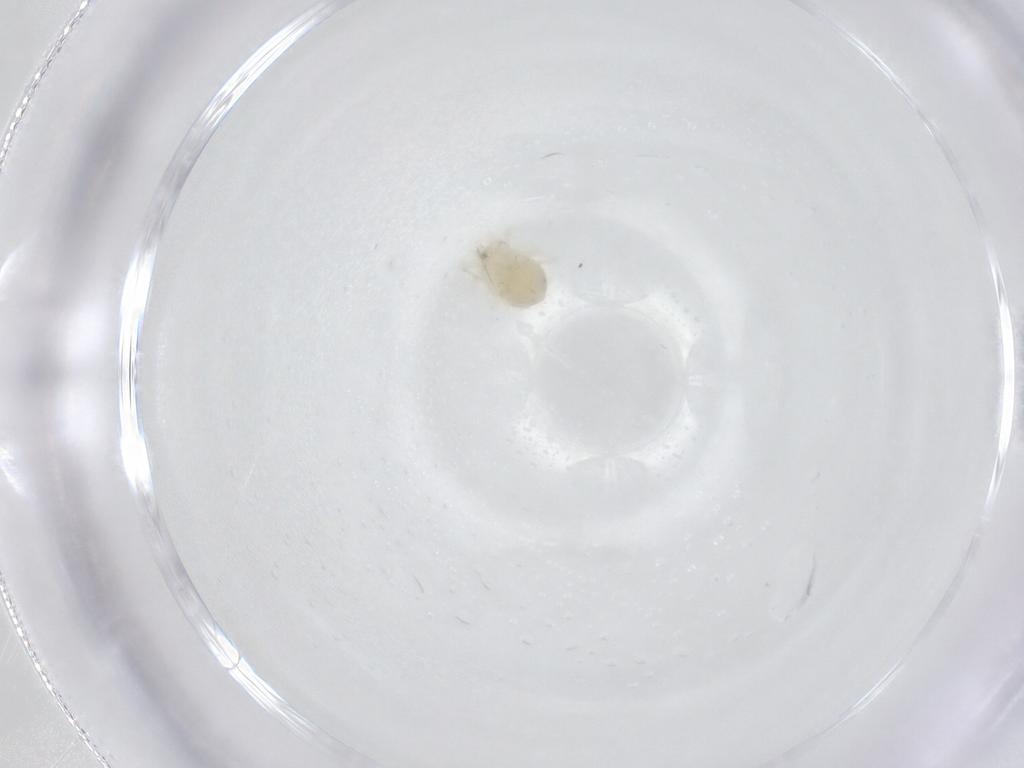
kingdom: Animalia
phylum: Arthropoda
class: Arachnida
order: Trombidiformes
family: Anystidae
